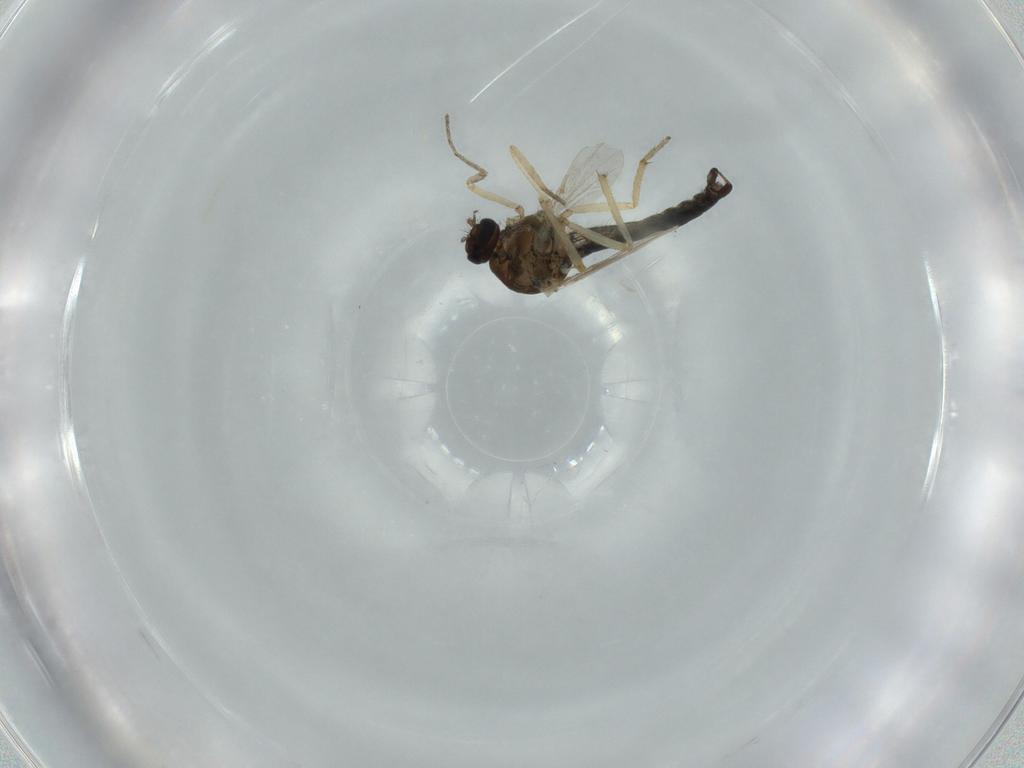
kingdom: Animalia
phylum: Arthropoda
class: Insecta
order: Diptera
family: Ceratopogonidae
